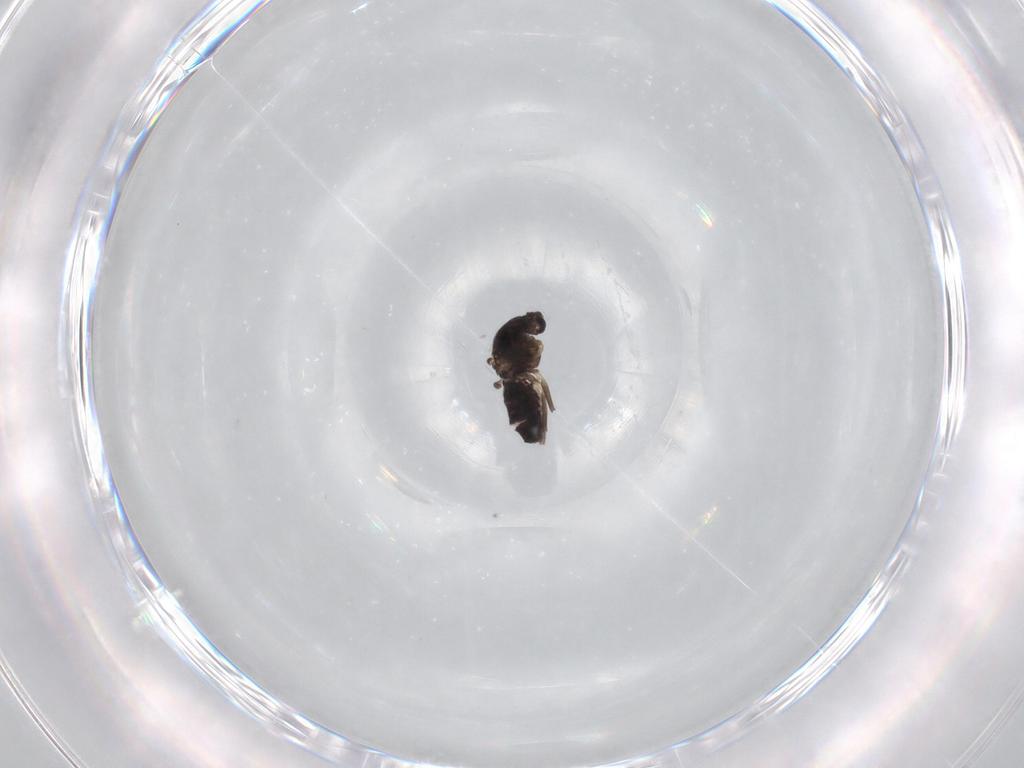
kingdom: Animalia
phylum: Arthropoda
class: Insecta
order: Diptera
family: Chironomidae
